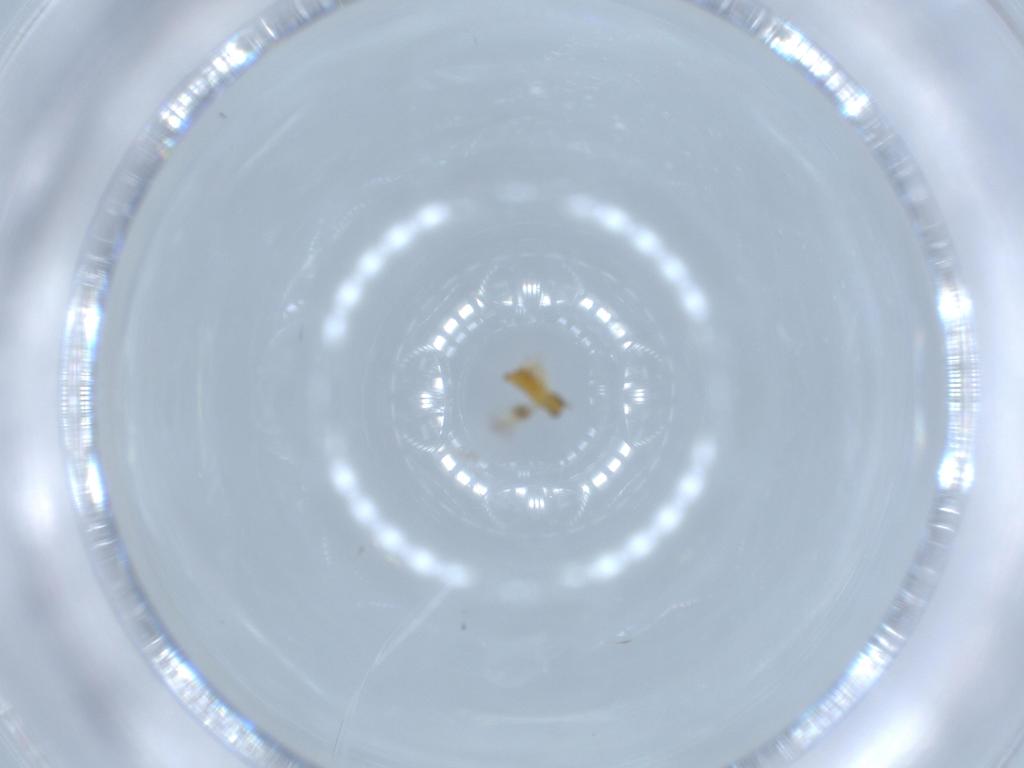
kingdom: Animalia
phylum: Arthropoda
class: Insecta
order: Hymenoptera
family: Signiphoridae
